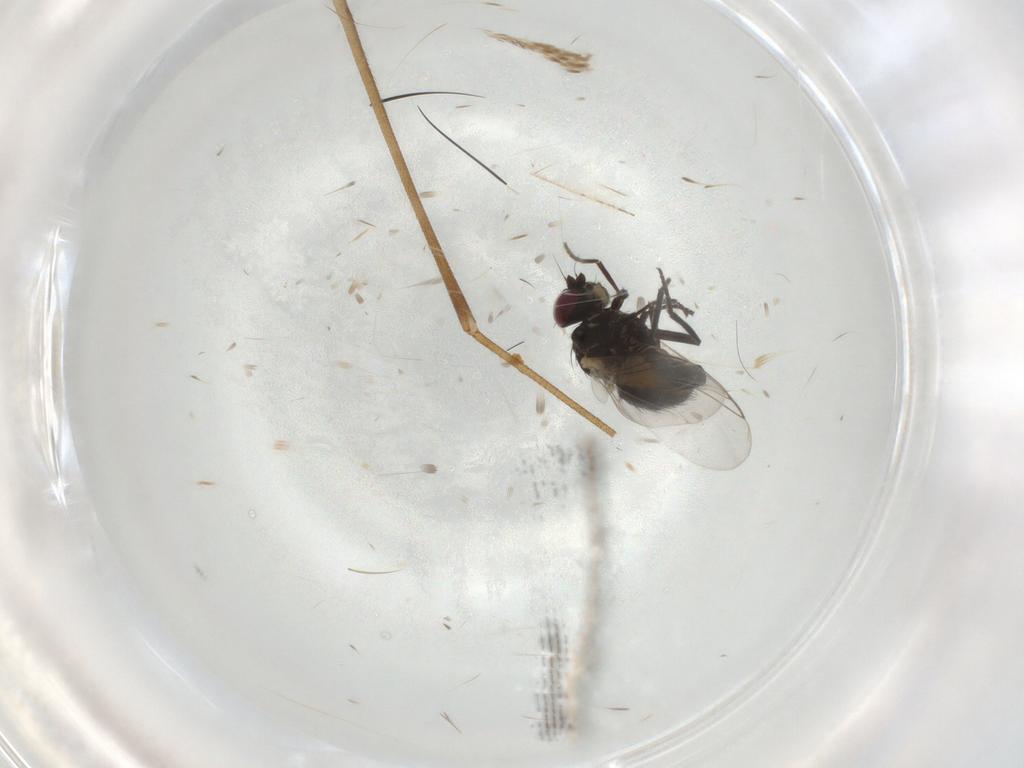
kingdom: Animalia
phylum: Arthropoda
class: Insecta
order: Diptera
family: Limoniidae
